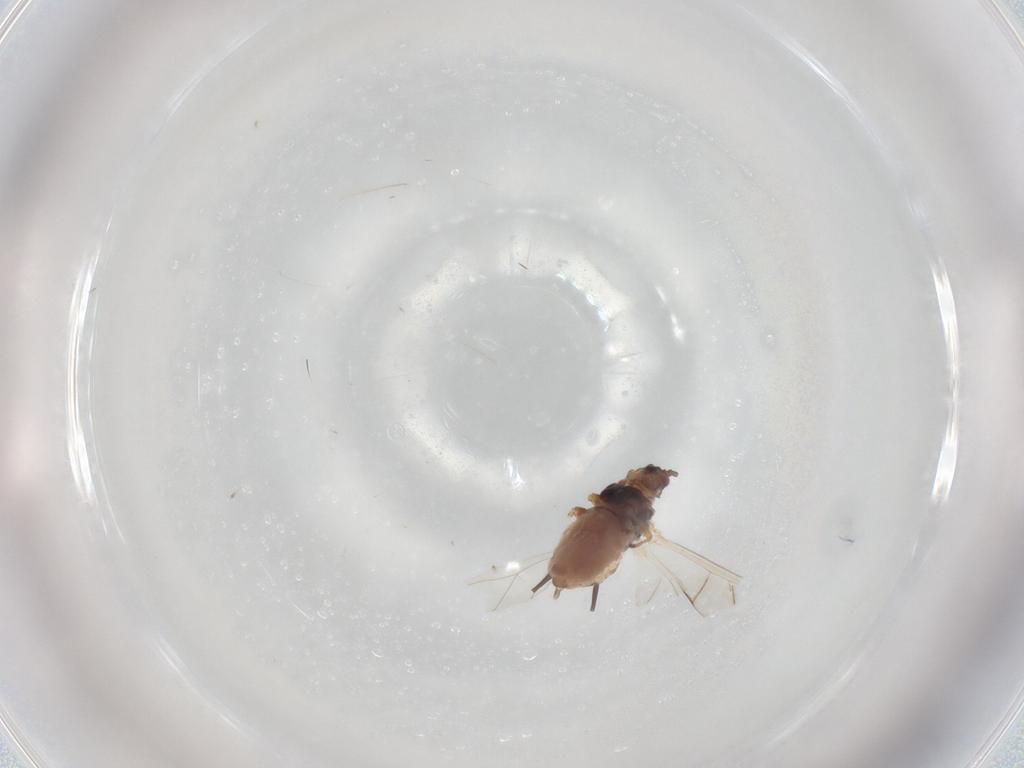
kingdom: Animalia
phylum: Arthropoda
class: Insecta
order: Hemiptera
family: Aphididae
